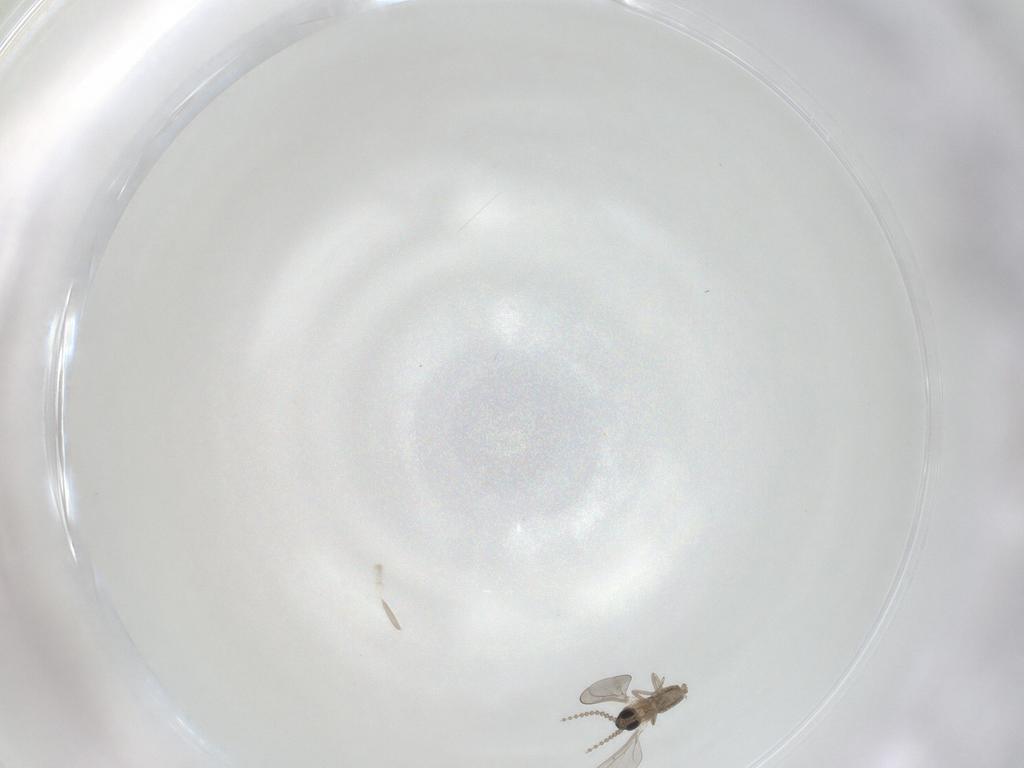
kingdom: Animalia
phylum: Arthropoda
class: Insecta
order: Diptera
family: Cecidomyiidae
